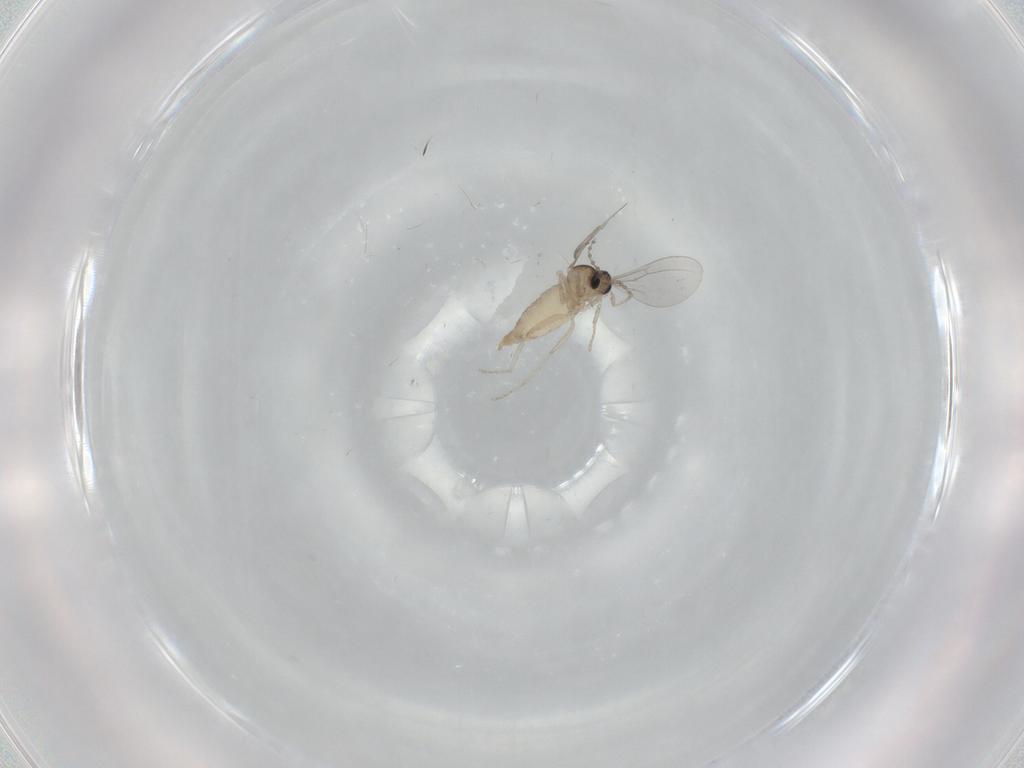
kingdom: Animalia
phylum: Arthropoda
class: Insecta
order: Diptera
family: Cecidomyiidae
